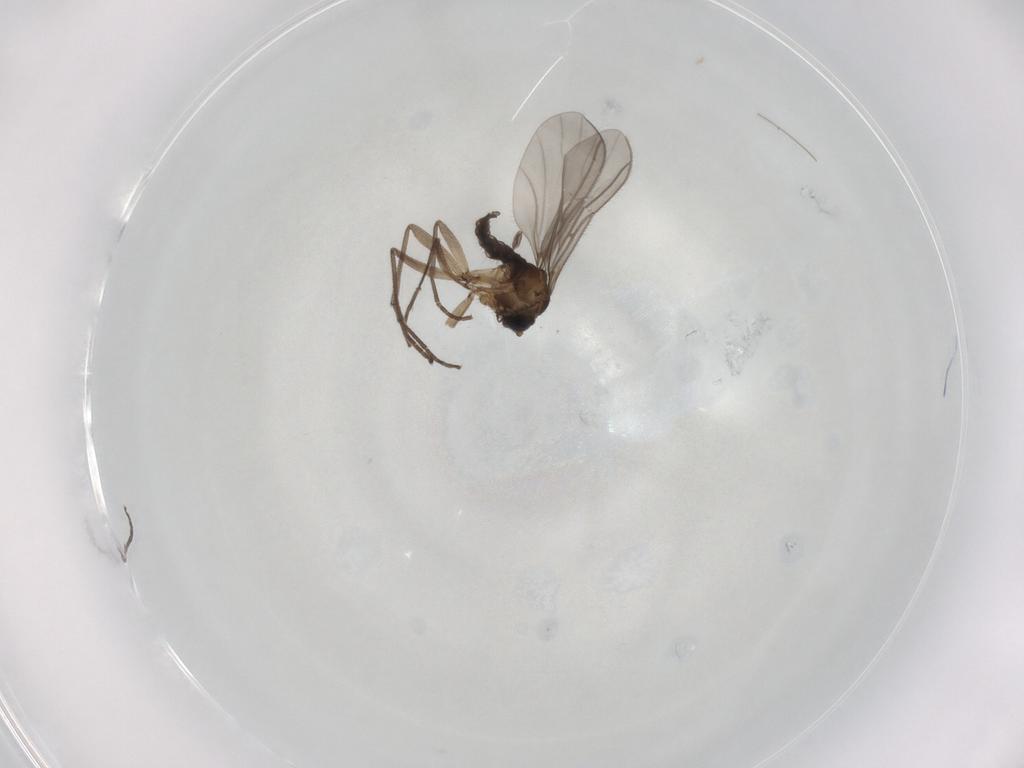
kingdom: Animalia
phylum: Arthropoda
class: Insecta
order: Diptera
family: Sciaridae
